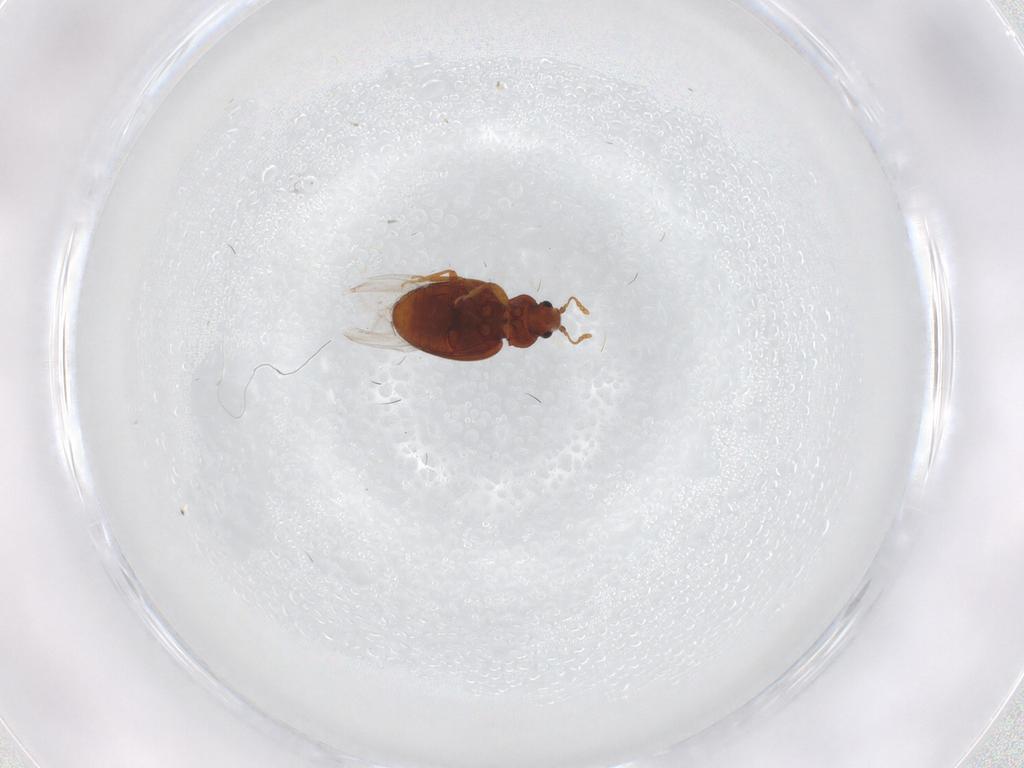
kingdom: Animalia
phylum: Arthropoda
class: Insecta
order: Coleoptera
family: Latridiidae
